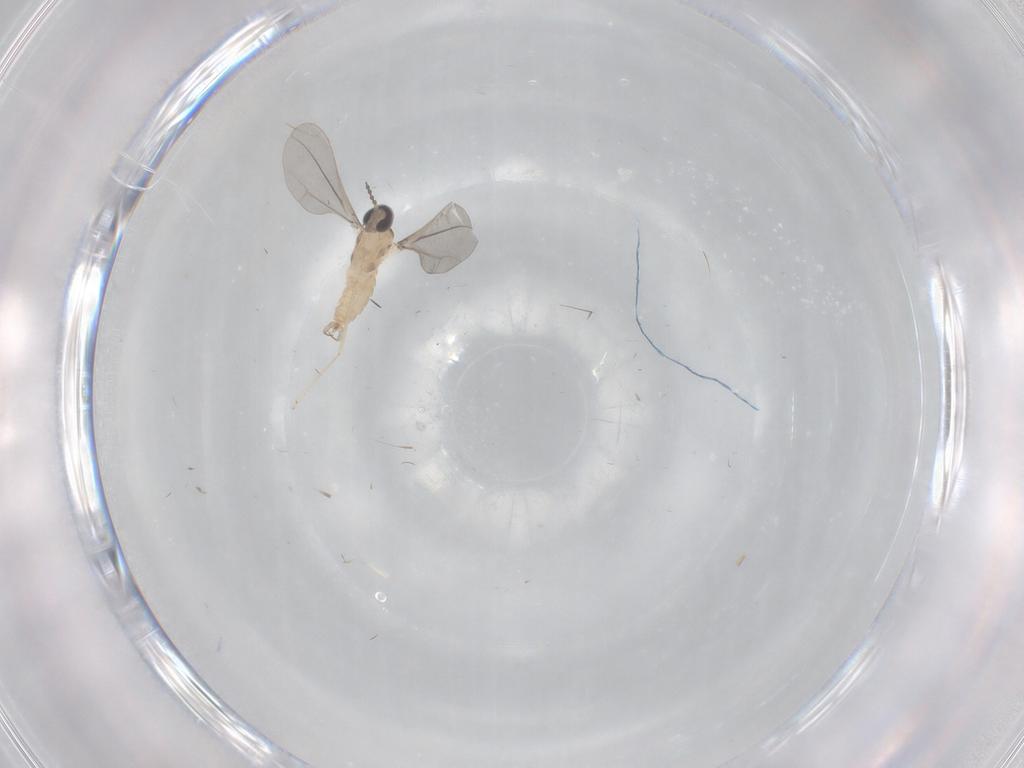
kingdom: Animalia
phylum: Arthropoda
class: Insecta
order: Diptera
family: Cecidomyiidae
